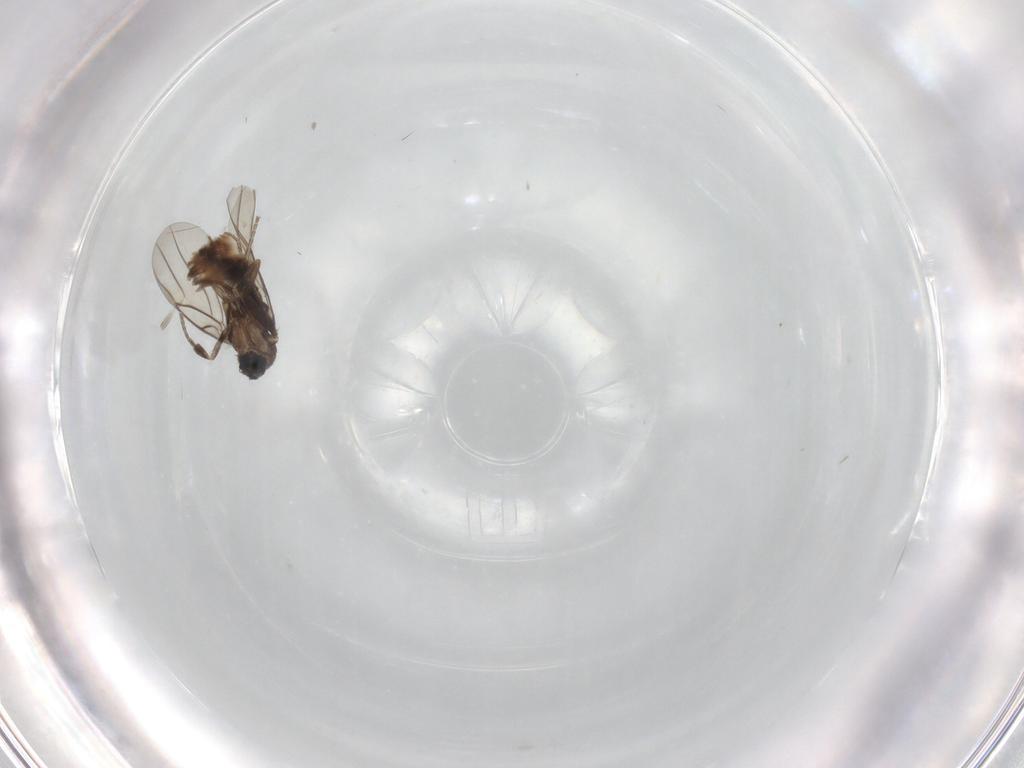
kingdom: Animalia
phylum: Arthropoda
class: Insecta
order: Diptera
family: Phoridae
